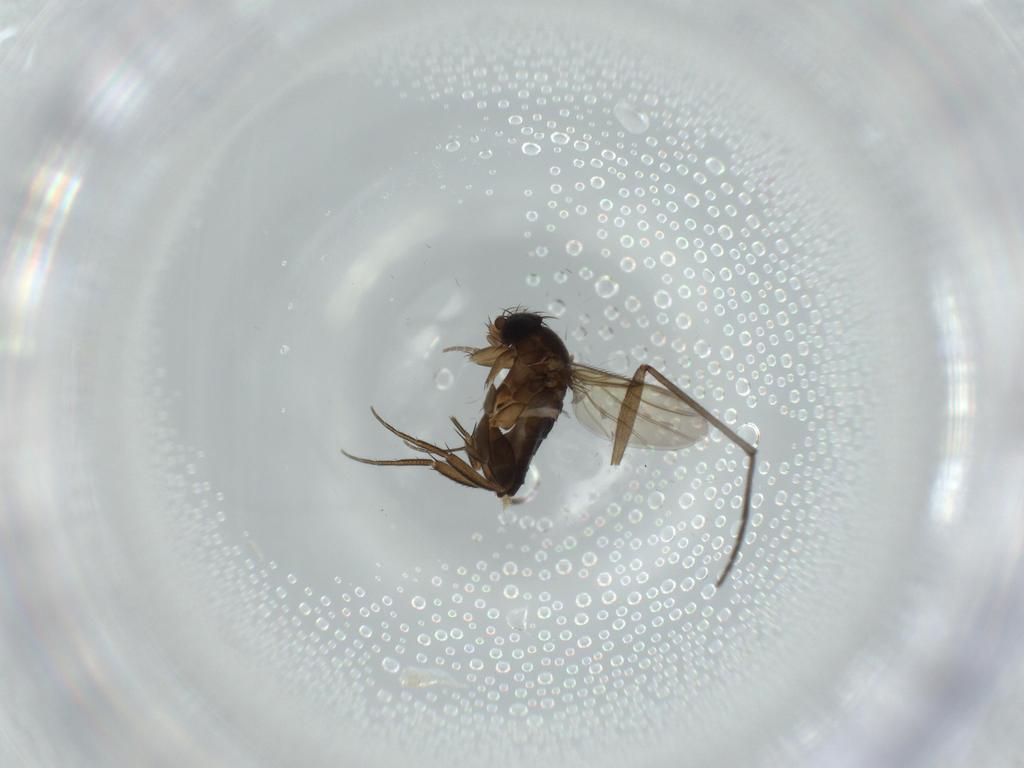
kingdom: Animalia
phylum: Arthropoda
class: Insecta
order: Diptera
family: Phoridae
